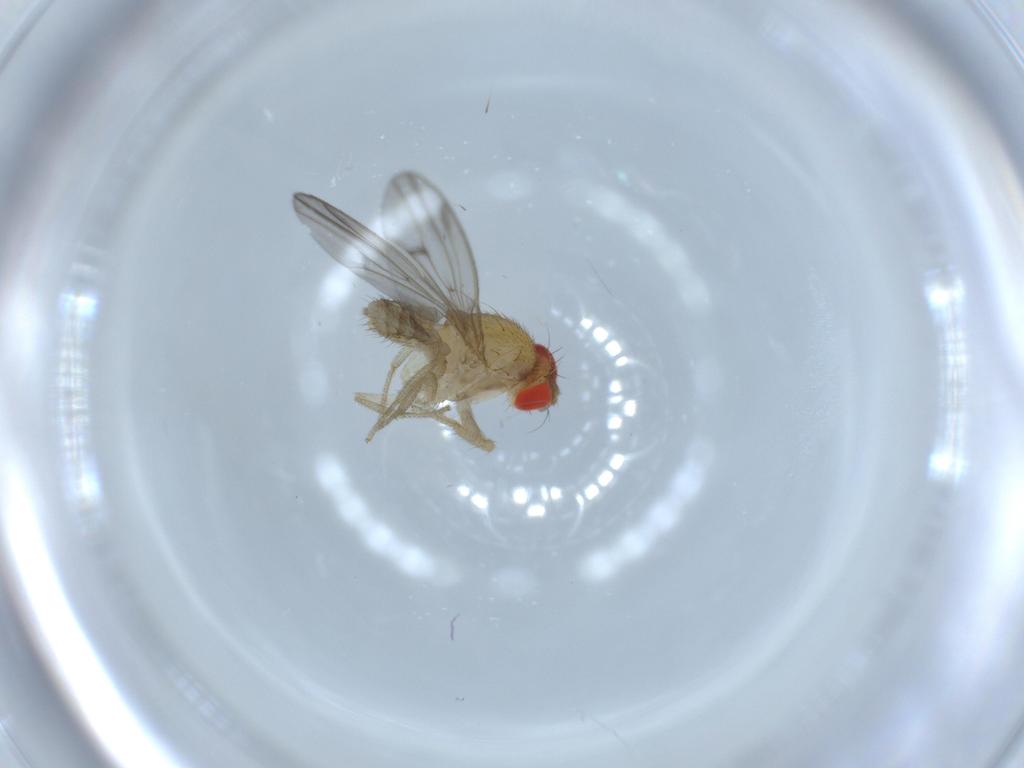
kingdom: Animalia
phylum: Arthropoda
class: Insecta
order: Diptera
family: Drosophilidae
